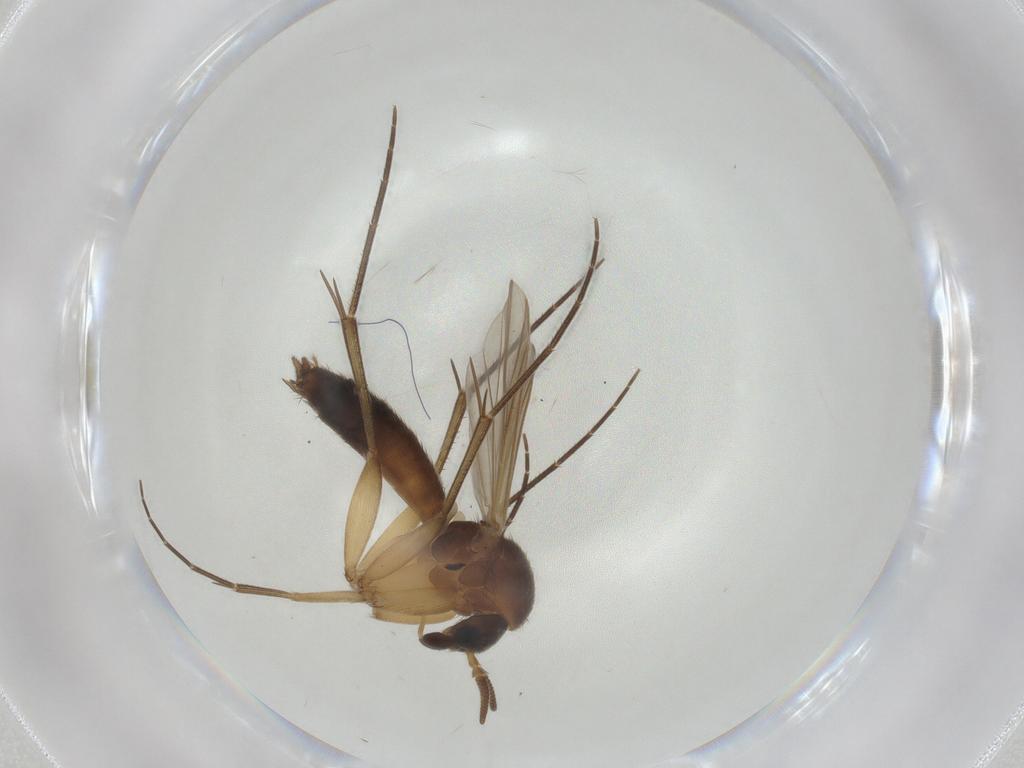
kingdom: Animalia
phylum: Arthropoda
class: Insecta
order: Diptera
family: Mycetophilidae
